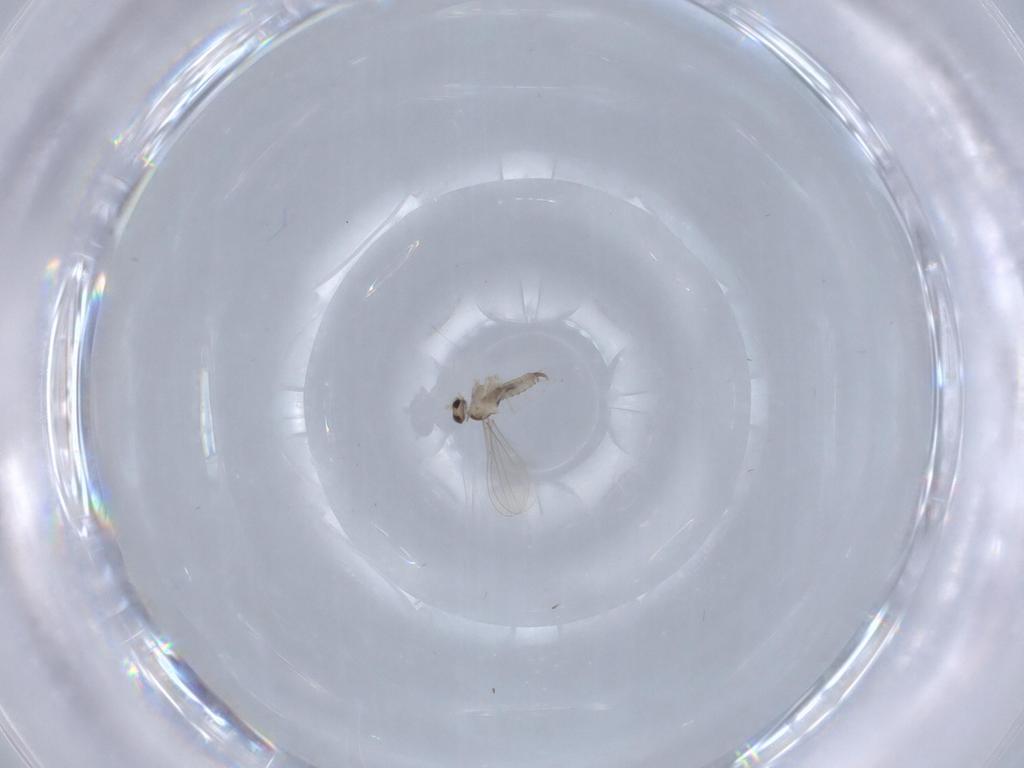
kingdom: Animalia
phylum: Arthropoda
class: Insecta
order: Diptera
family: Cecidomyiidae
